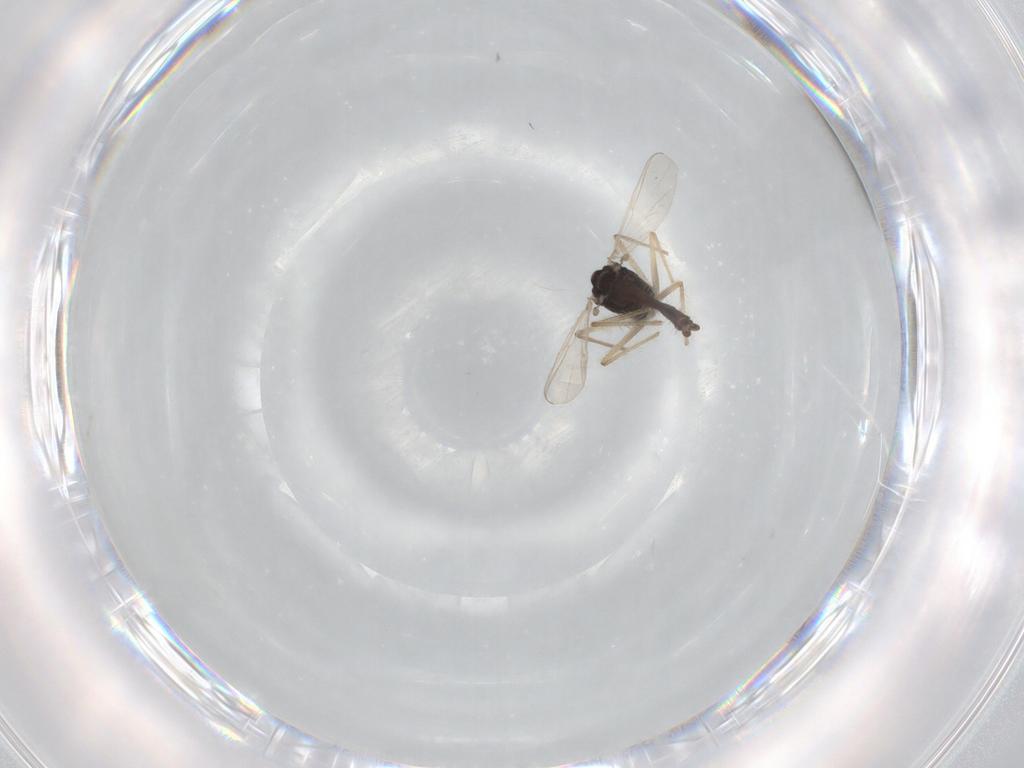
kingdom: Animalia
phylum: Arthropoda
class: Insecta
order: Diptera
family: Chironomidae
